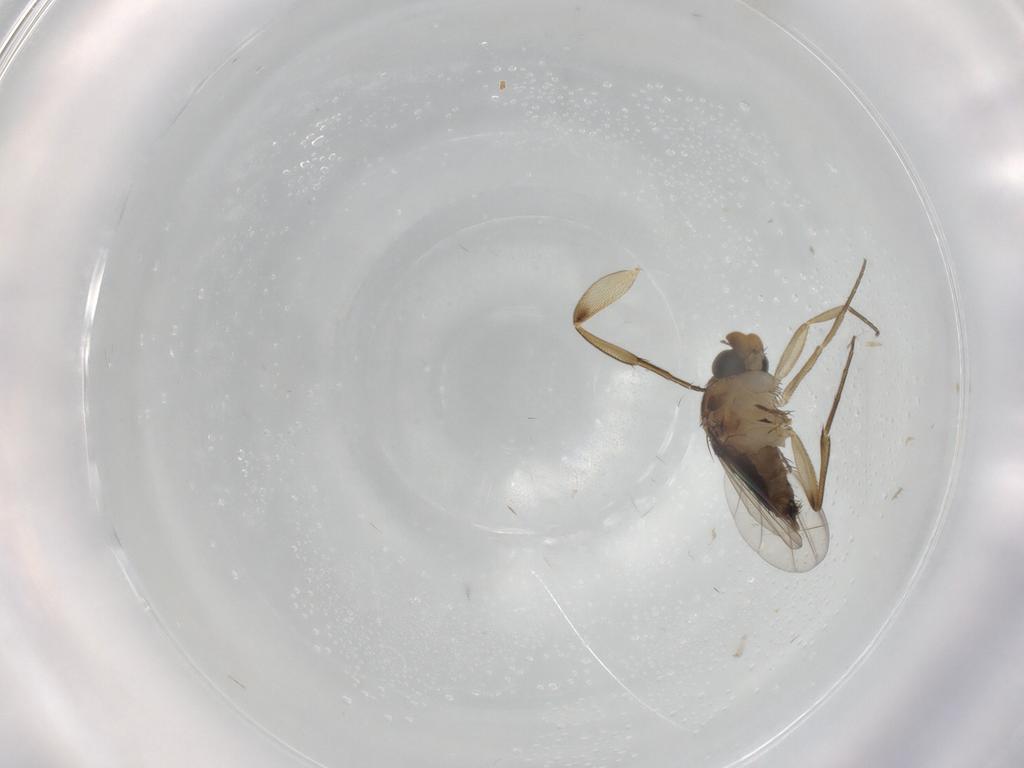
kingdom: Animalia
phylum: Arthropoda
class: Insecta
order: Diptera
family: Phoridae
